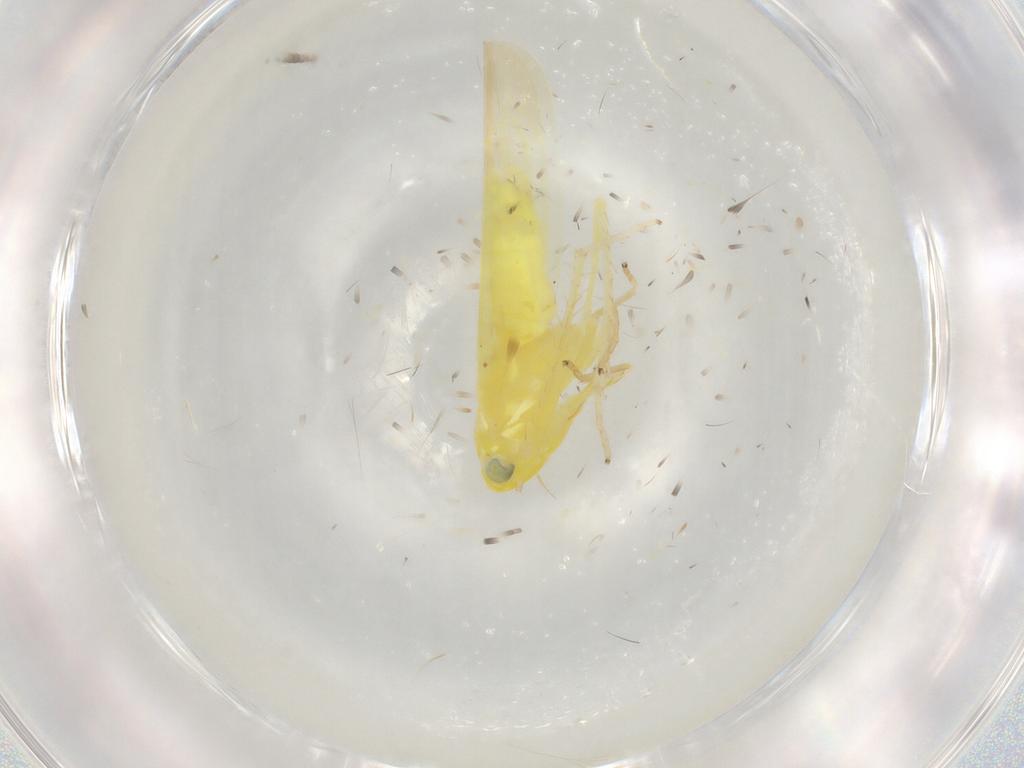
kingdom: Animalia
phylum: Arthropoda
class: Insecta
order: Hemiptera
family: Cicadellidae
